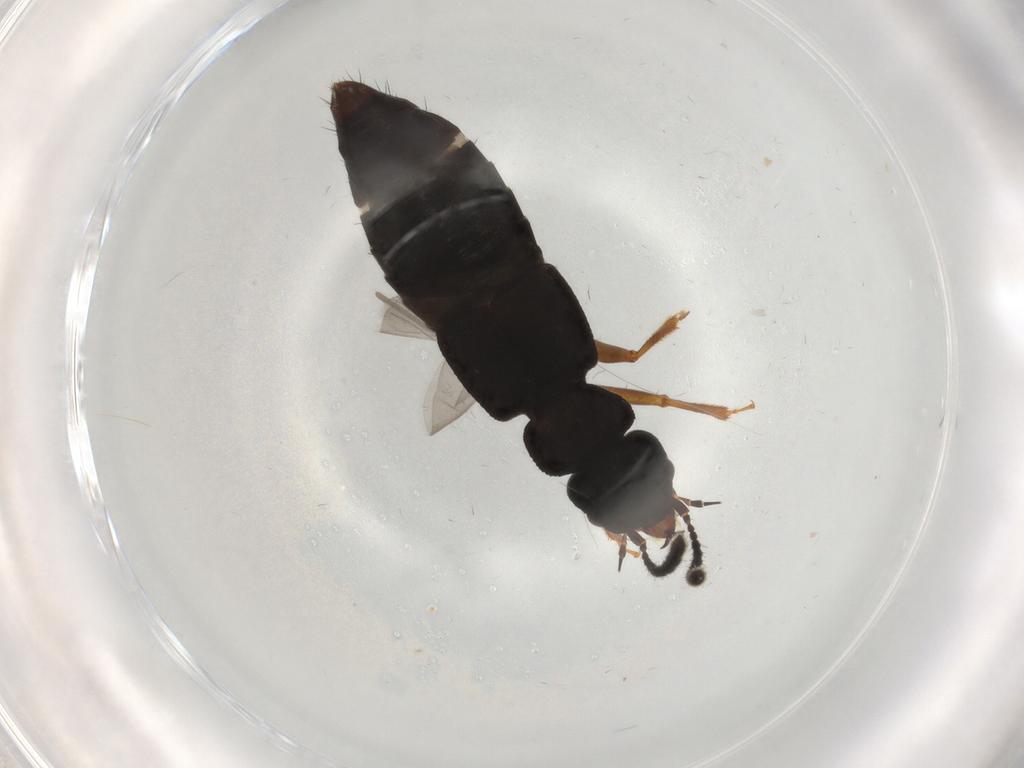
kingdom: Animalia
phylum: Arthropoda
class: Insecta
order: Coleoptera
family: Staphylinidae
